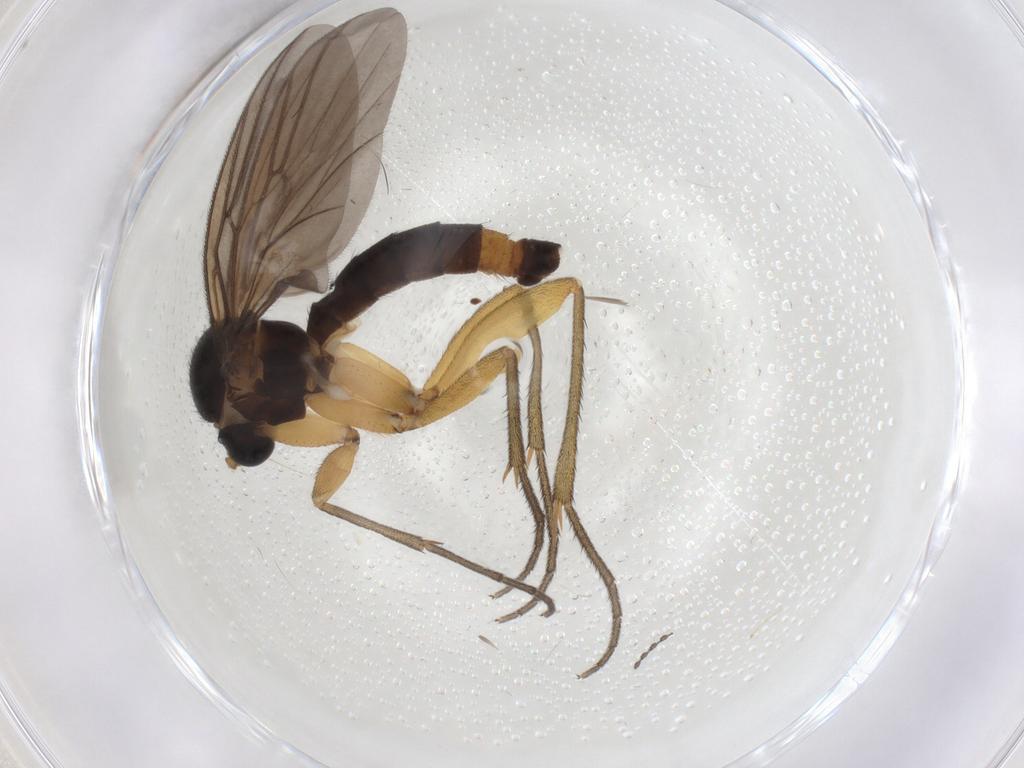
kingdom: Animalia
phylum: Arthropoda
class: Insecta
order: Diptera
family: Mycetophilidae
